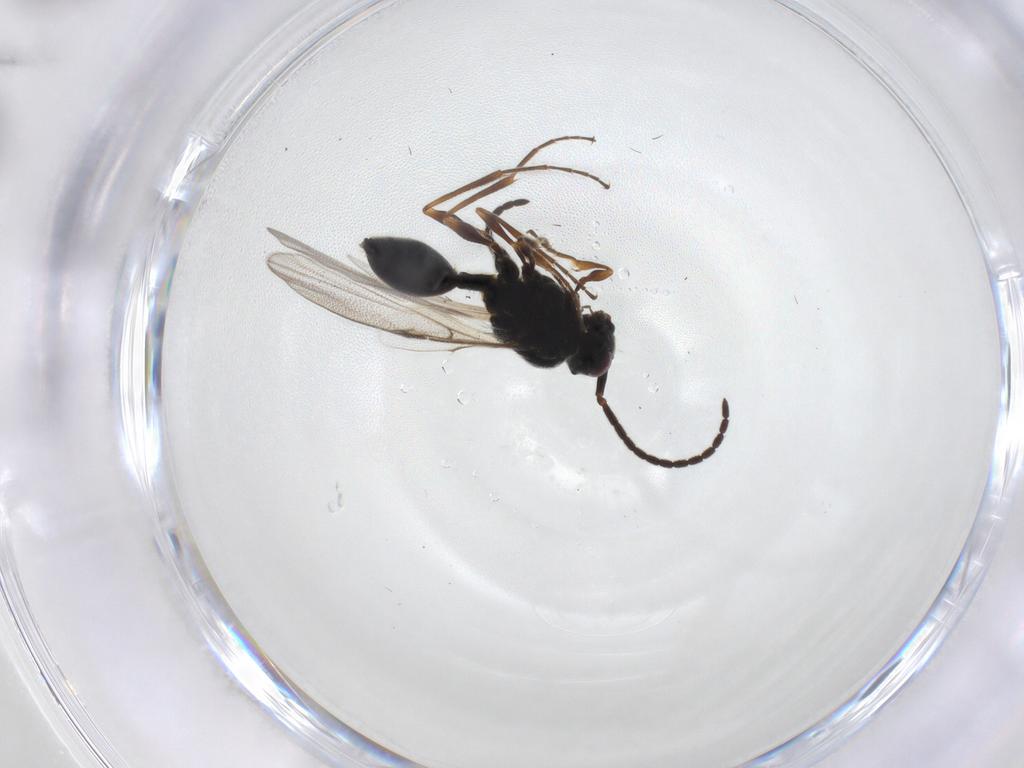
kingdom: Animalia
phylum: Arthropoda
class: Insecta
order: Hymenoptera
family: Diapriidae
